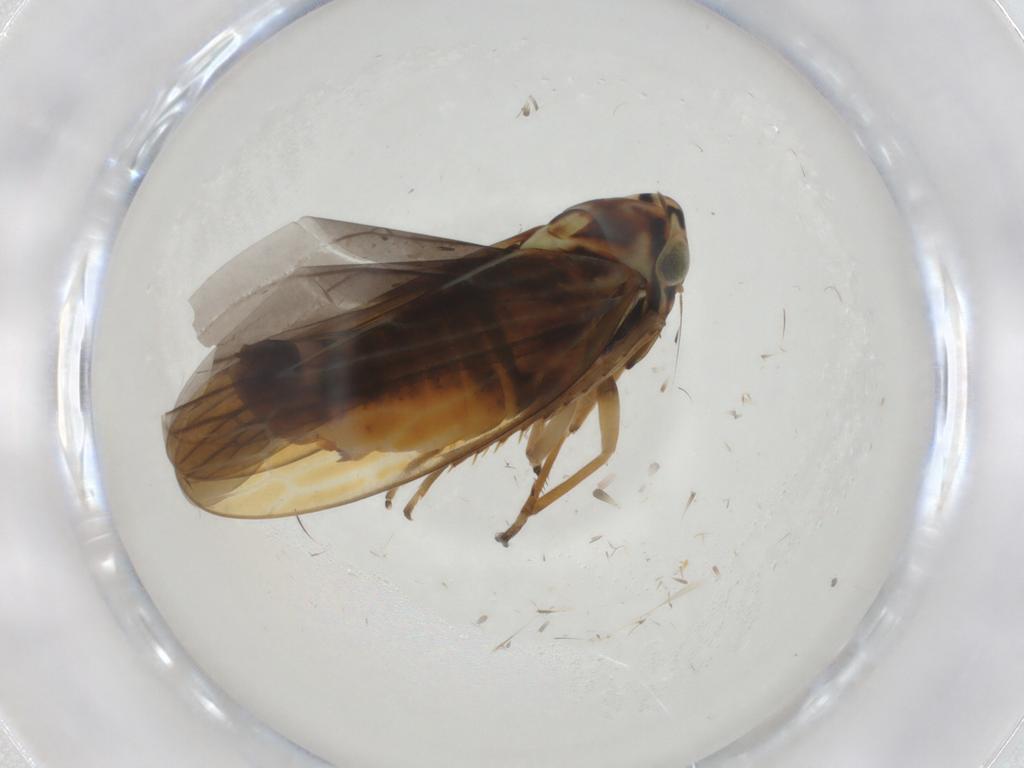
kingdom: Animalia
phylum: Arthropoda
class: Insecta
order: Hemiptera
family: Cicadellidae
